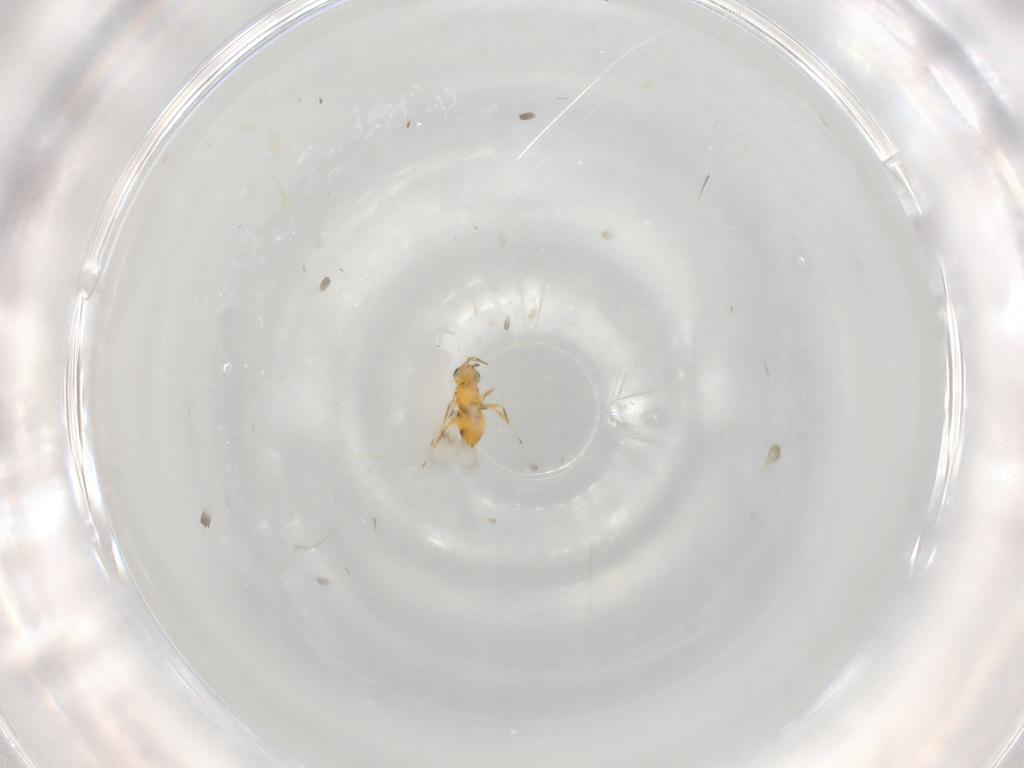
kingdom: Animalia
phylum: Arthropoda
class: Insecta
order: Hymenoptera
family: Aphelinidae
